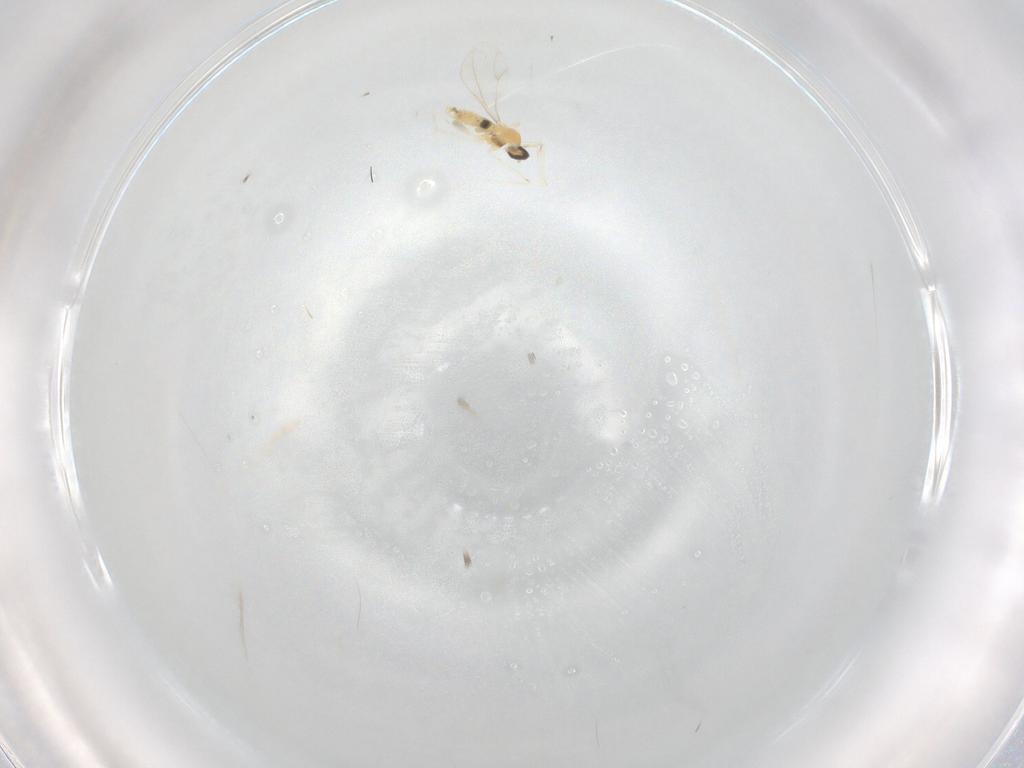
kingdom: Animalia
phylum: Arthropoda
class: Insecta
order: Diptera
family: Cecidomyiidae
